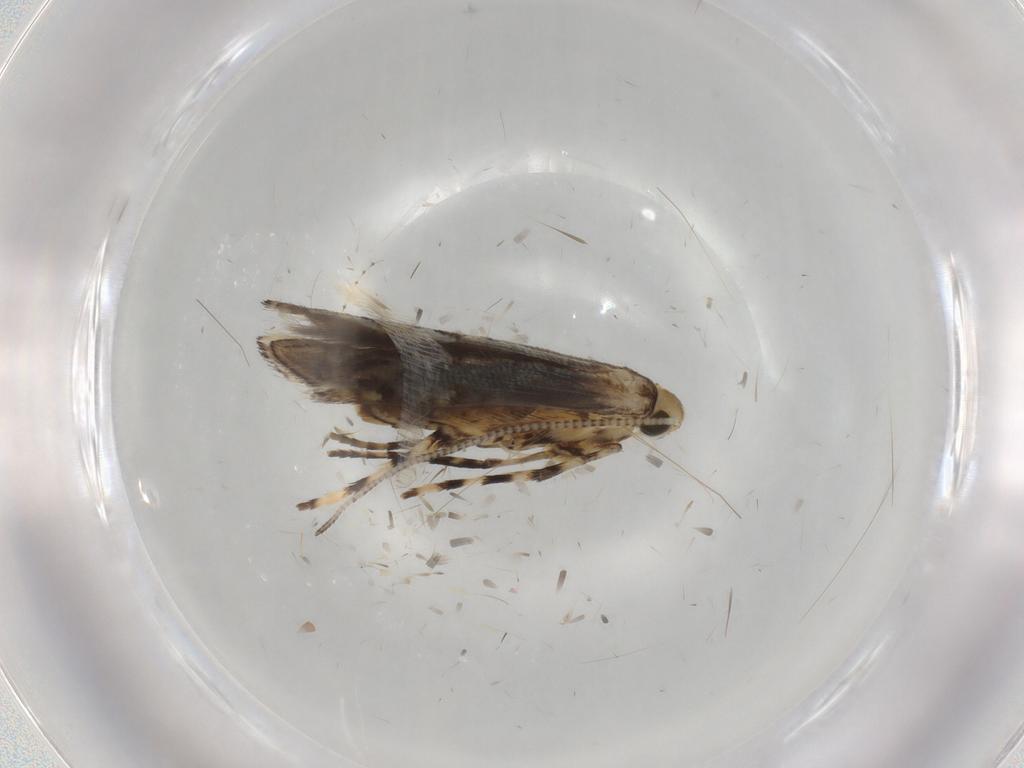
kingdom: Animalia
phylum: Arthropoda
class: Insecta
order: Lepidoptera
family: Gracillariidae
